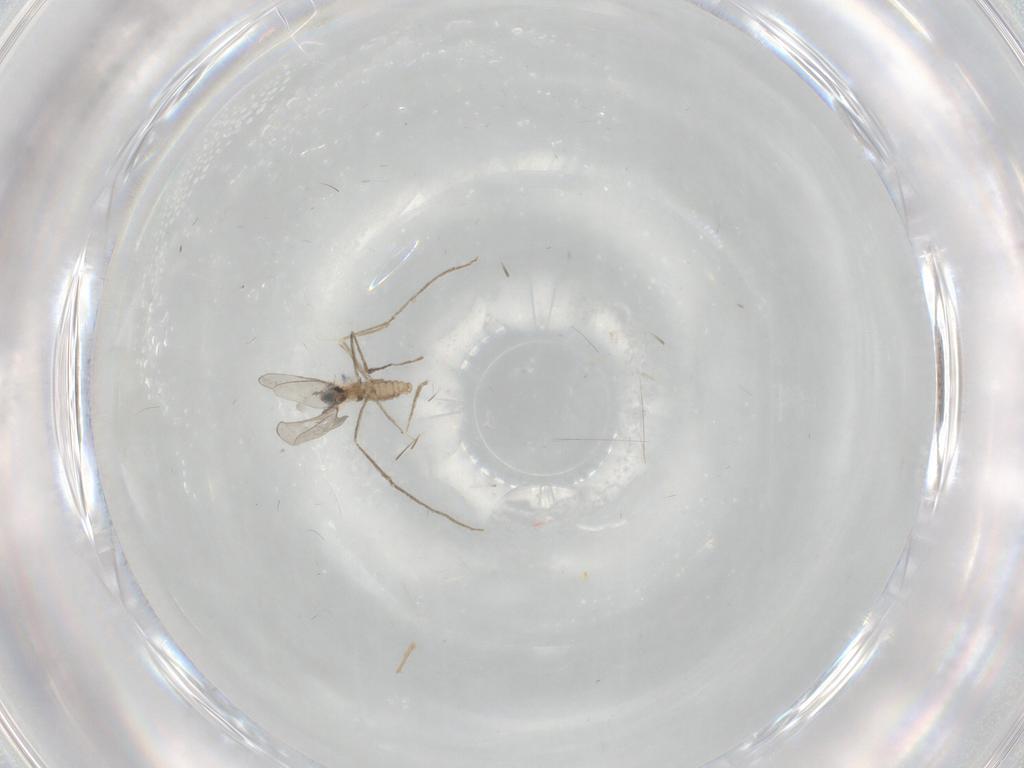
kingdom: Animalia
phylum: Arthropoda
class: Insecta
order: Diptera
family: Cecidomyiidae
